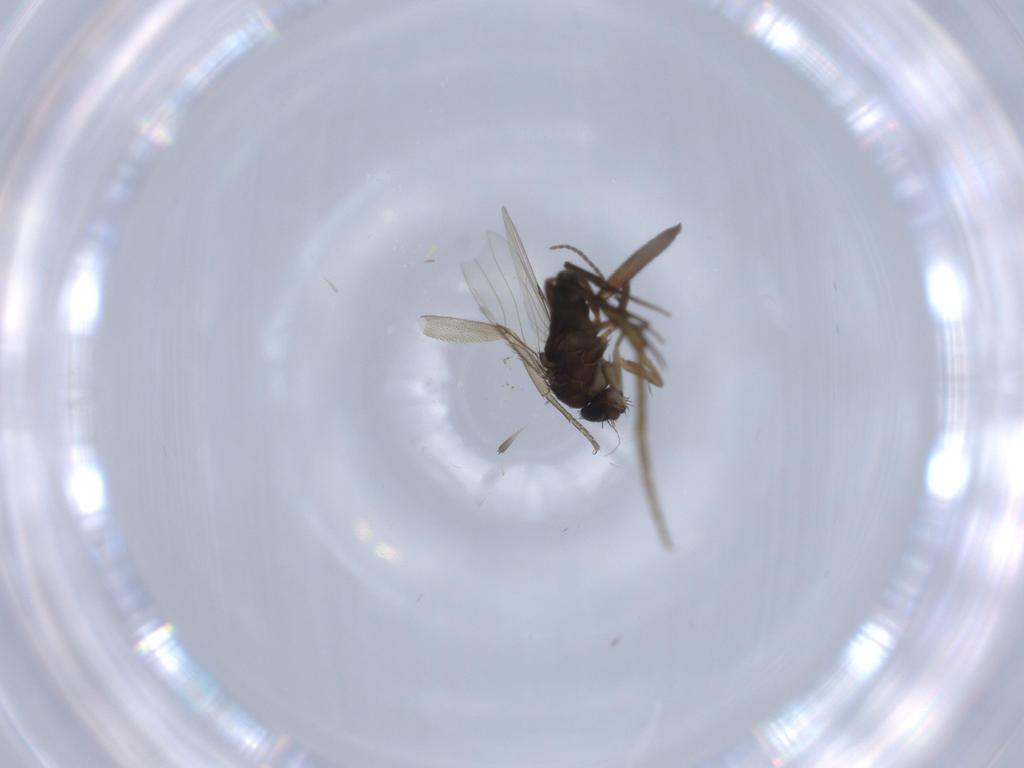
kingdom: Animalia
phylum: Arthropoda
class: Insecta
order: Diptera
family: Phoridae
